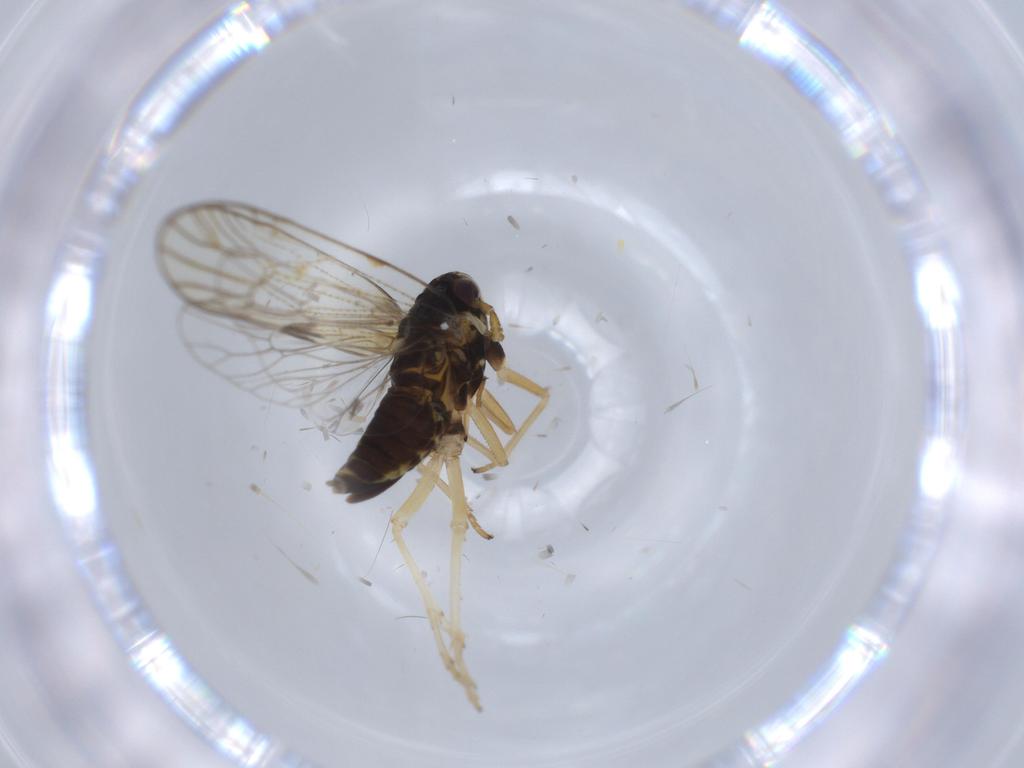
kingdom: Animalia
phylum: Arthropoda
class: Insecta
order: Hemiptera
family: Aleyrodidae
